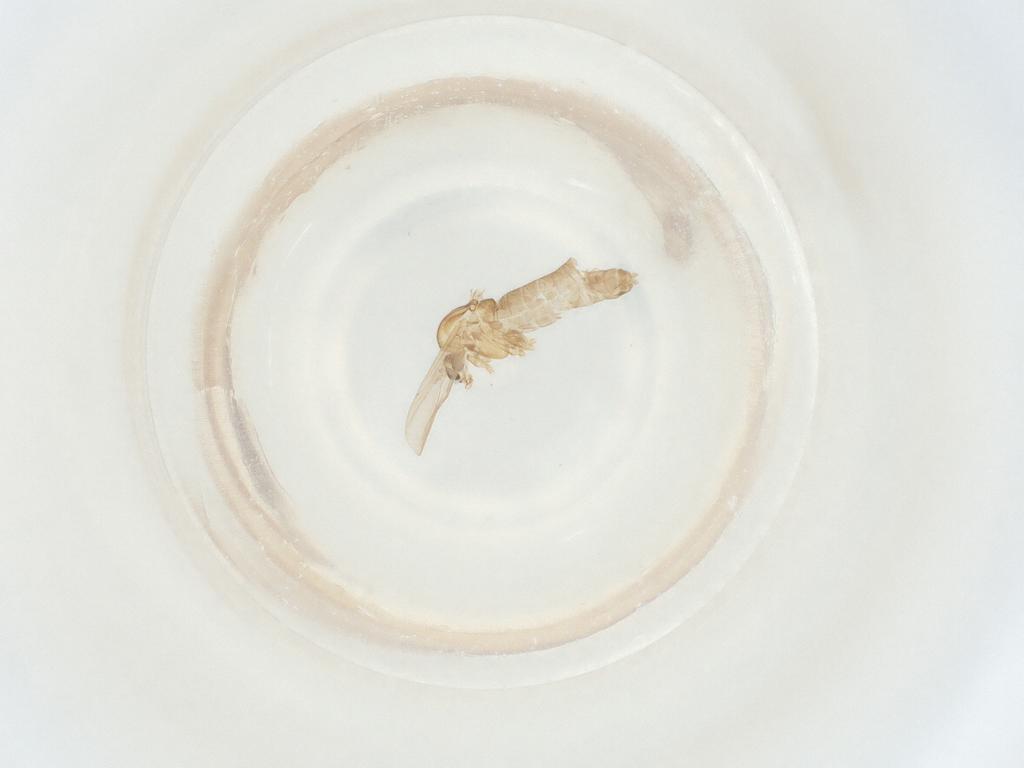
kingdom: Animalia
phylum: Arthropoda
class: Insecta
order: Diptera
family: Chironomidae
